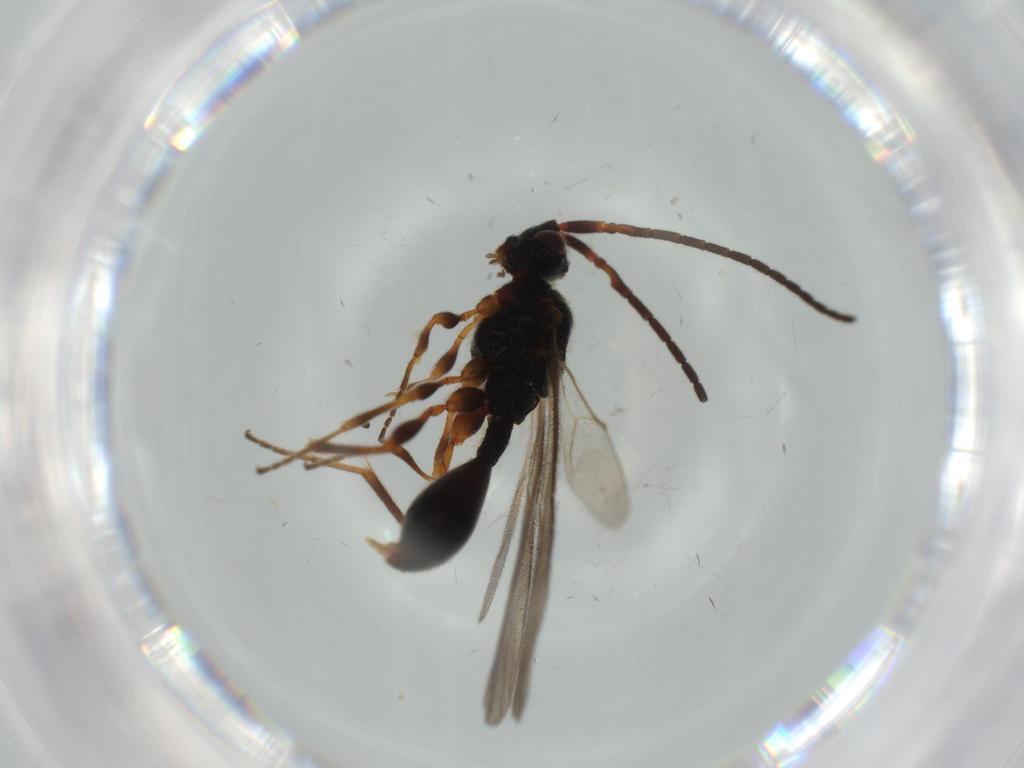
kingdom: Animalia
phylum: Arthropoda
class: Insecta
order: Hymenoptera
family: Diapriidae
